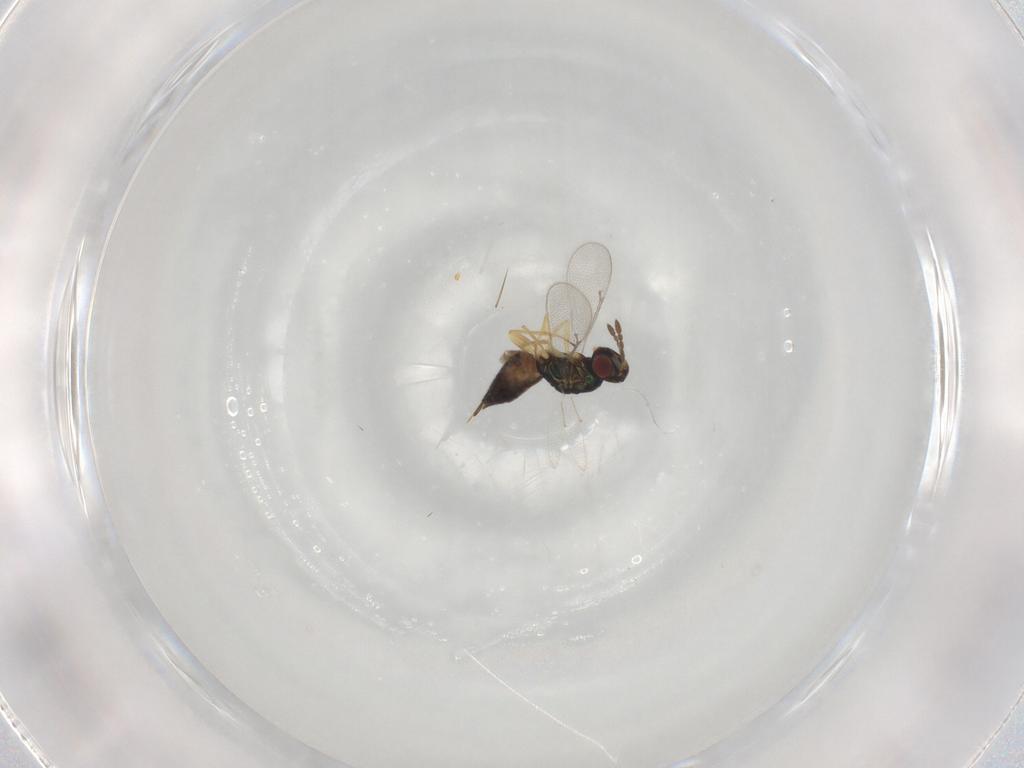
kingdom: Animalia
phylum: Arthropoda
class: Insecta
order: Hymenoptera
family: Eulophidae
